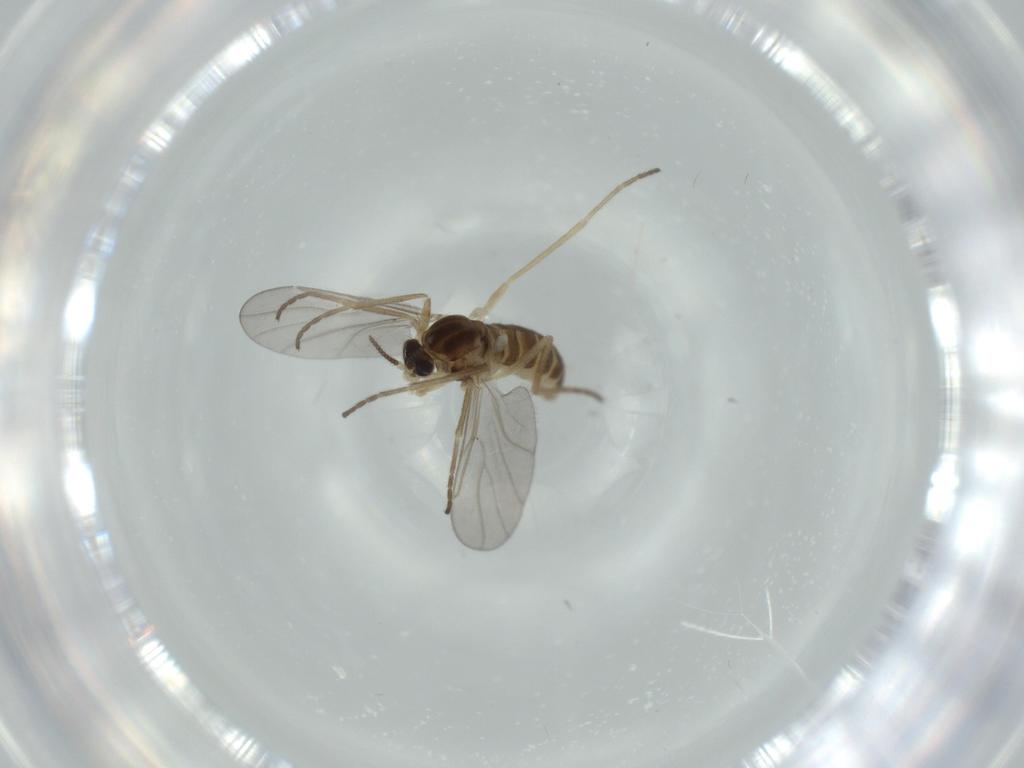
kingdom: Animalia
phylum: Arthropoda
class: Insecta
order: Diptera
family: Cecidomyiidae
